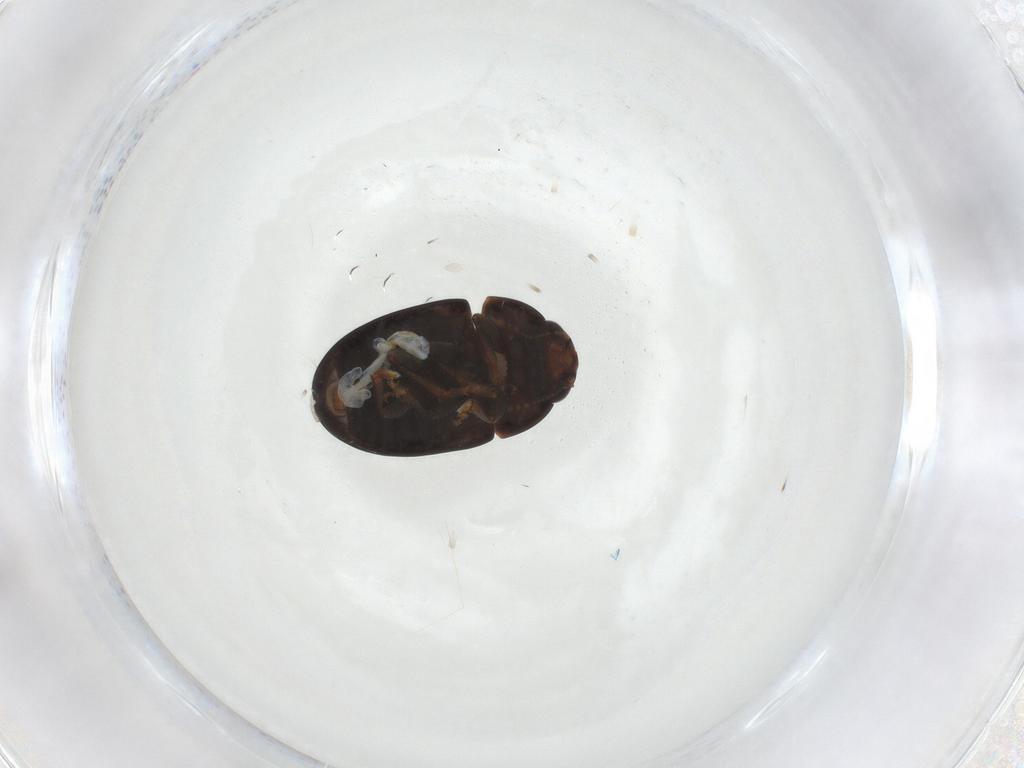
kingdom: Animalia
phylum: Arthropoda
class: Insecta
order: Coleoptera
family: Phalacridae
